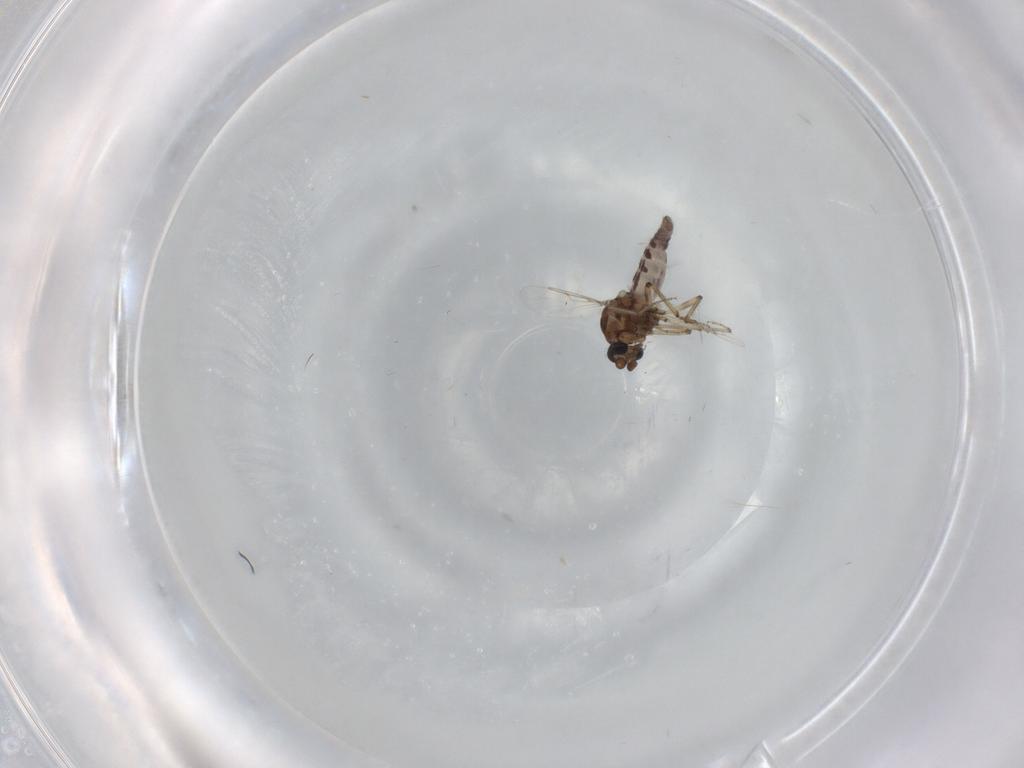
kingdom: Animalia
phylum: Arthropoda
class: Insecta
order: Diptera
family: Ceratopogonidae
